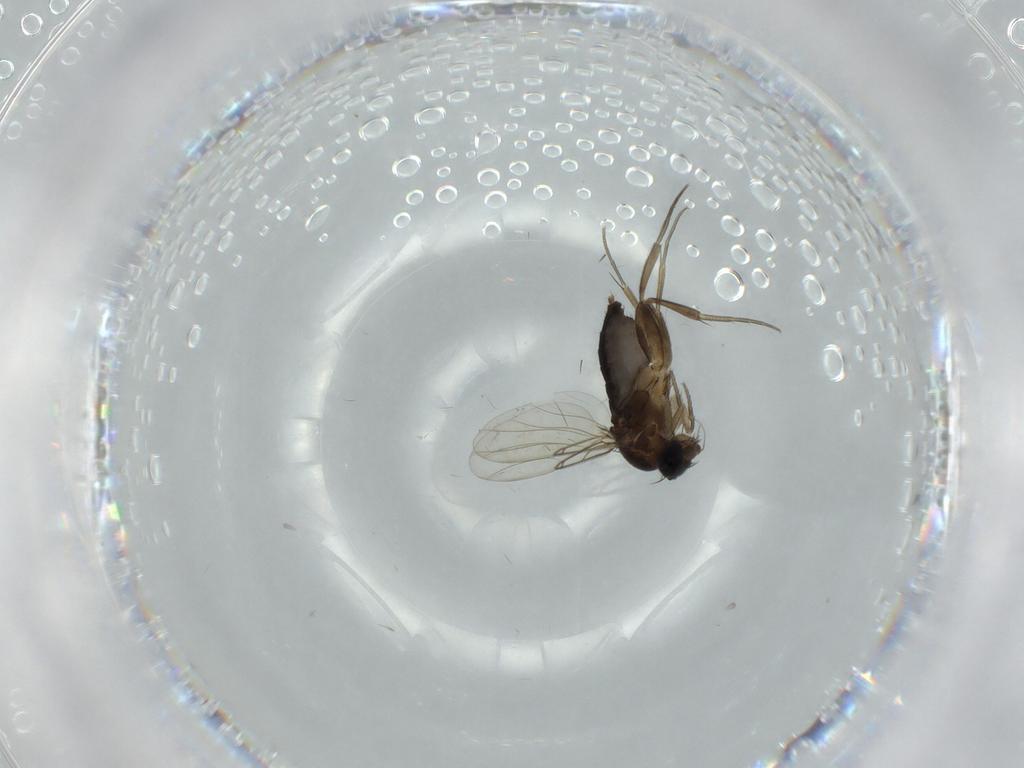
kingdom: Animalia
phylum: Arthropoda
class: Insecta
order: Diptera
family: Phoridae
